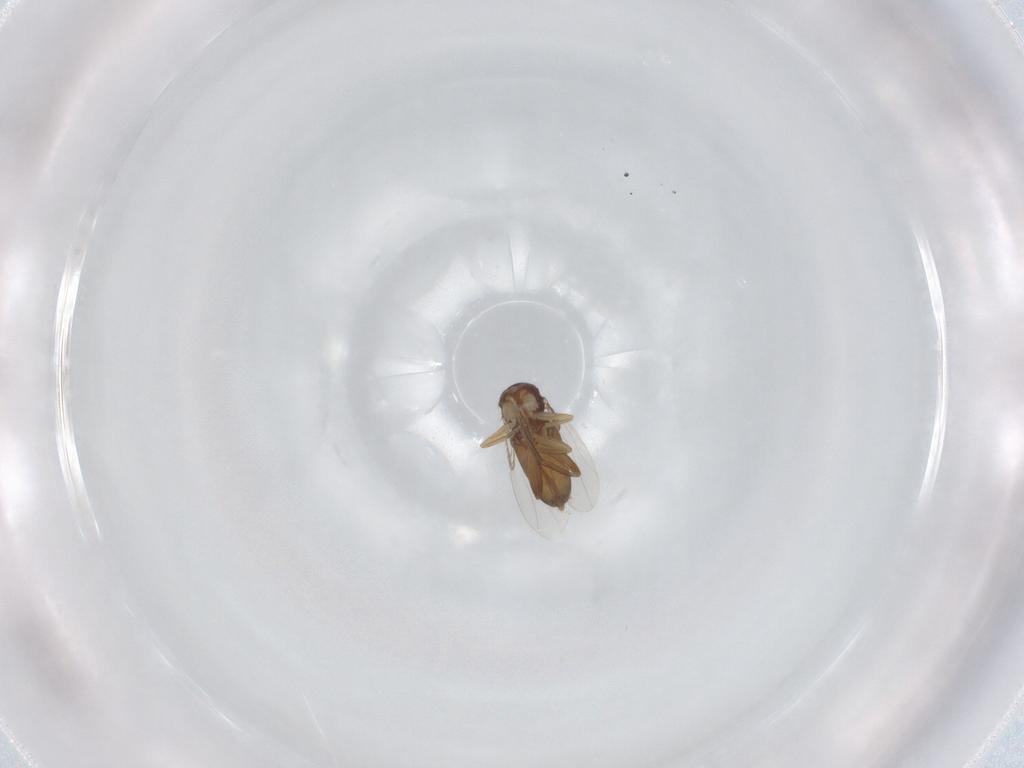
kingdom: Animalia
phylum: Arthropoda
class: Insecta
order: Diptera
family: Phoridae
